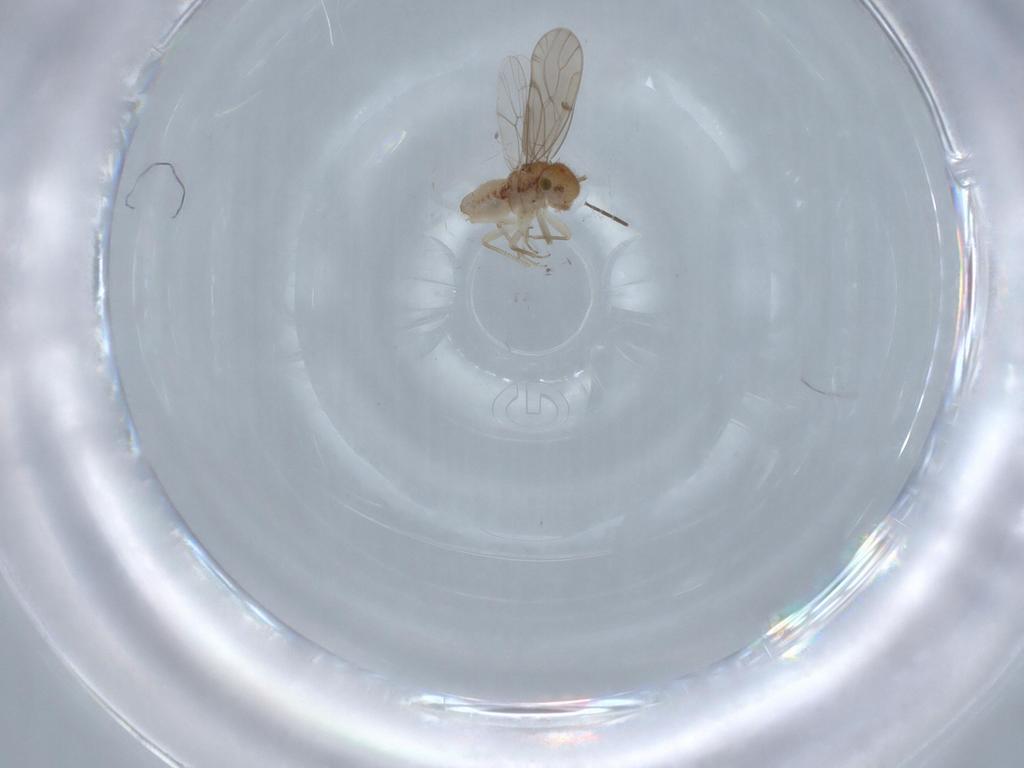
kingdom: Animalia
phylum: Arthropoda
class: Insecta
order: Psocodea
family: Ectopsocidae
